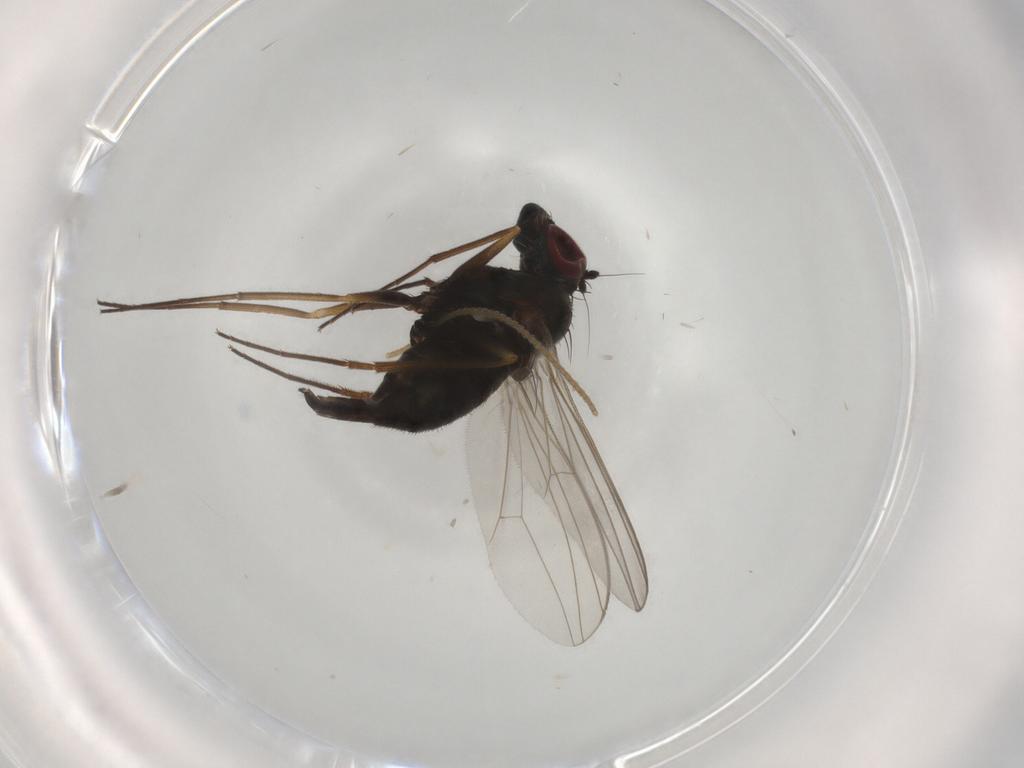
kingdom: Animalia
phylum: Arthropoda
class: Insecta
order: Diptera
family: Dolichopodidae
